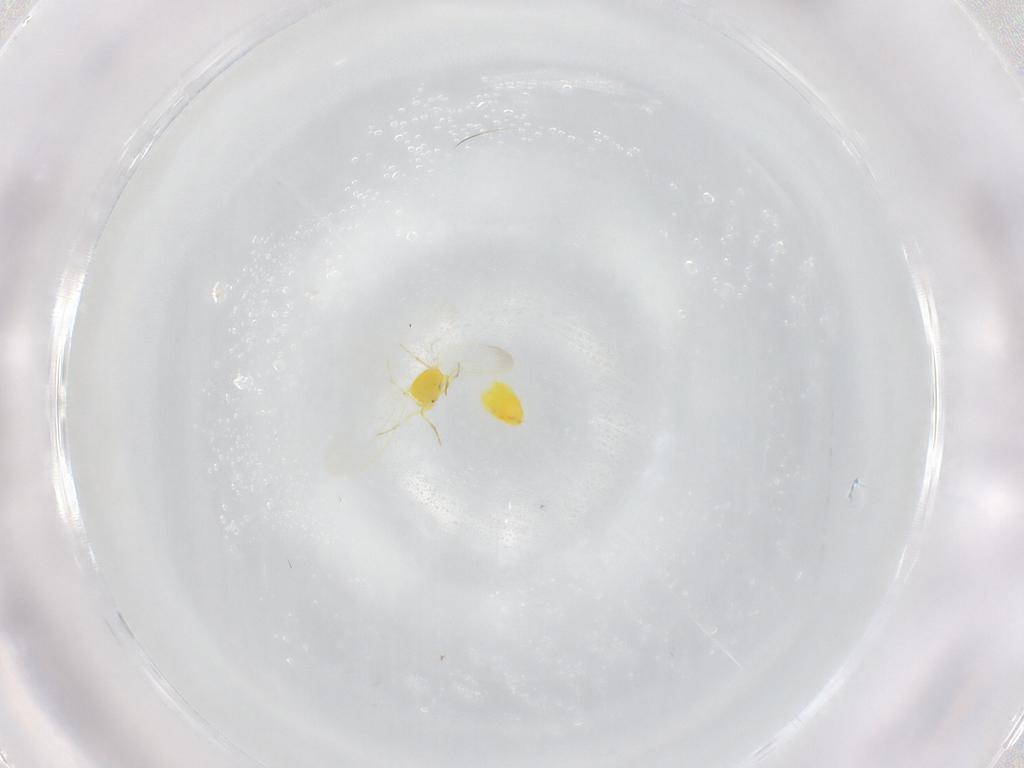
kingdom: Animalia
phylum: Arthropoda
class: Insecta
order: Hemiptera
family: Aleyrodidae
